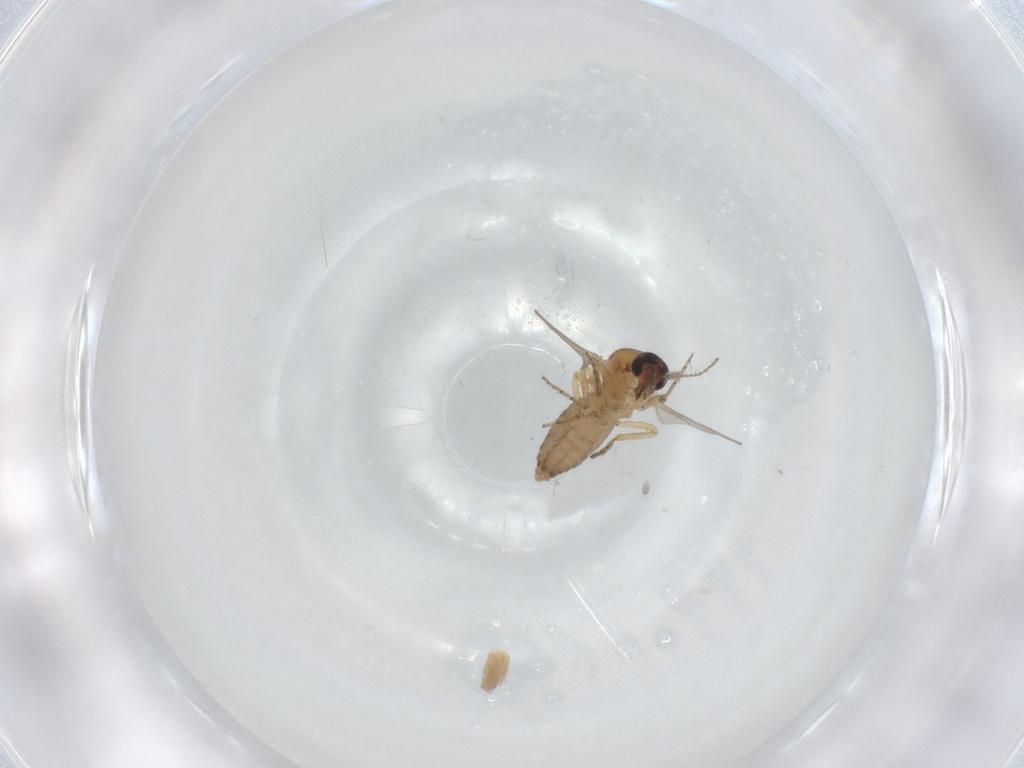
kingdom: Animalia
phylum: Arthropoda
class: Insecta
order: Diptera
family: Ceratopogonidae
